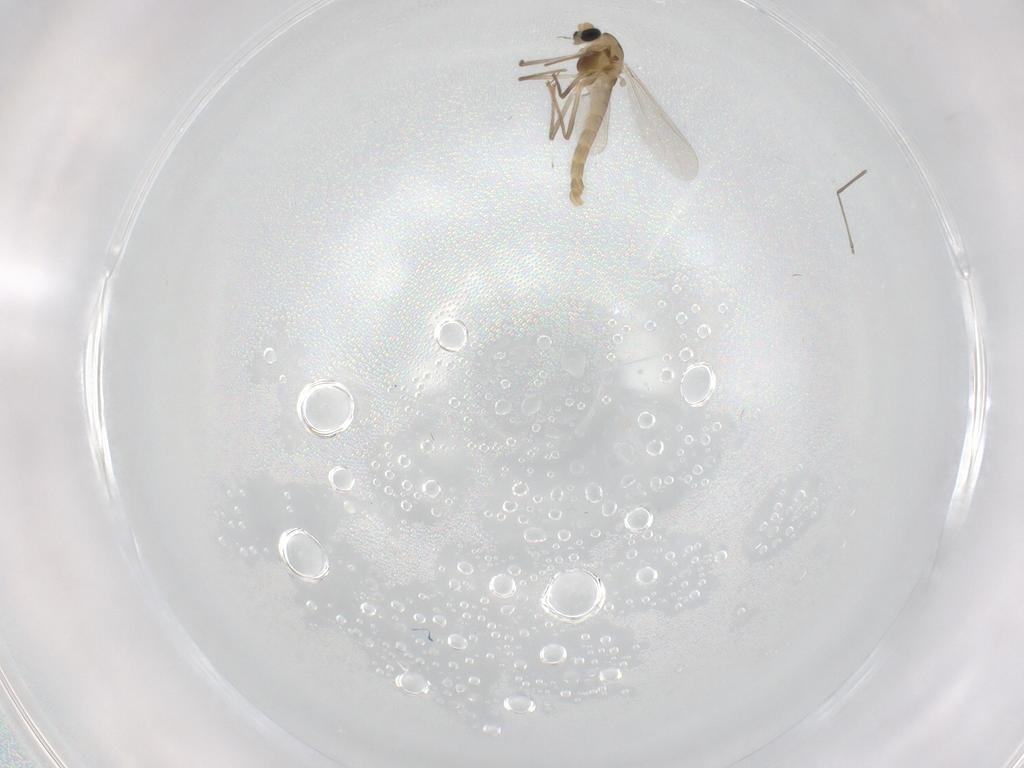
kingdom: Animalia
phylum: Arthropoda
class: Insecta
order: Diptera
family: Cecidomyiidae
